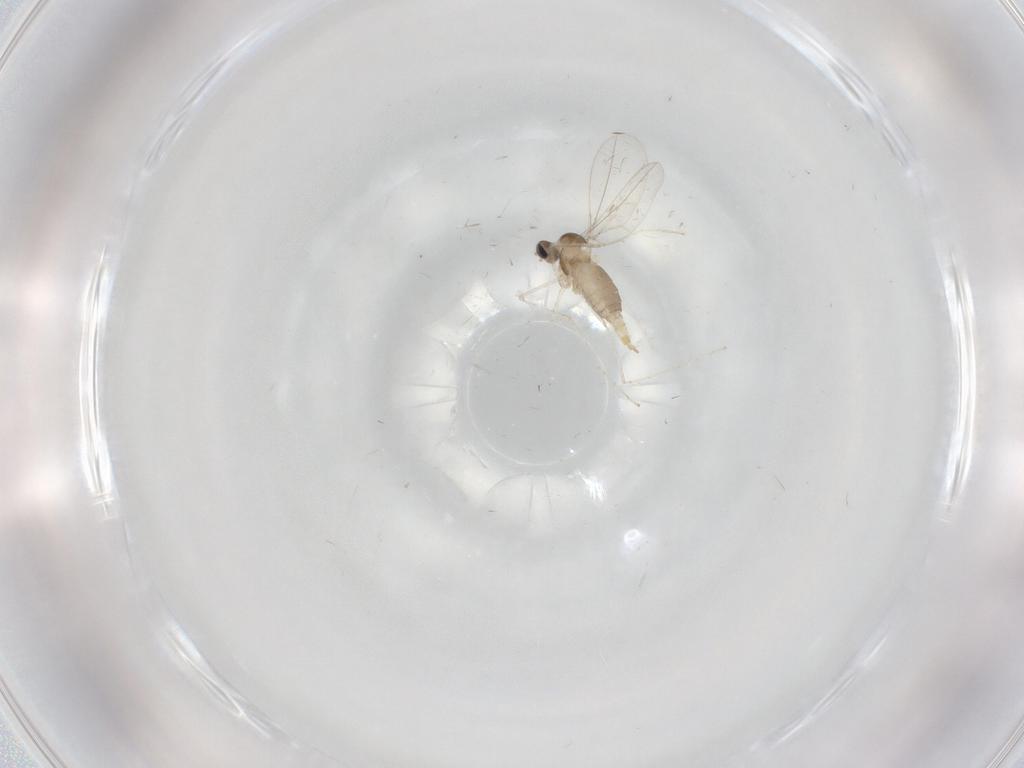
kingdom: Animalia
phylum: Arthropoda
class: Insecta
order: Diptera
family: Cecidomyiidae
